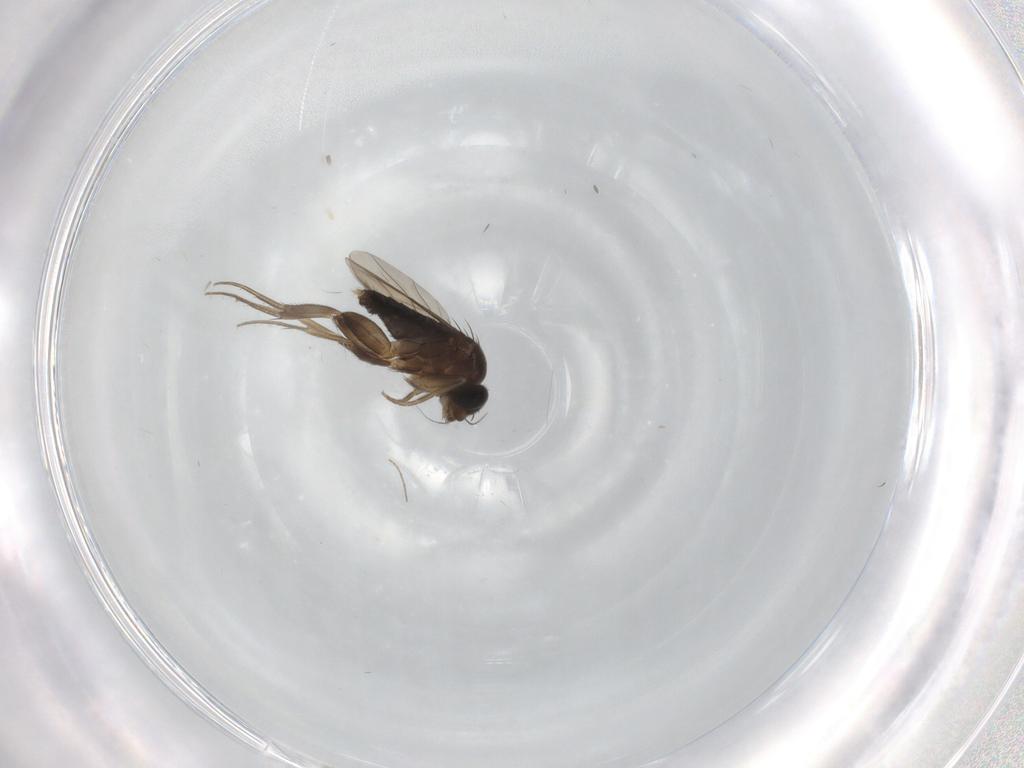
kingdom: Animalia
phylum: Arthropoda
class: Insecta
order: Diptera
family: Phoridae
